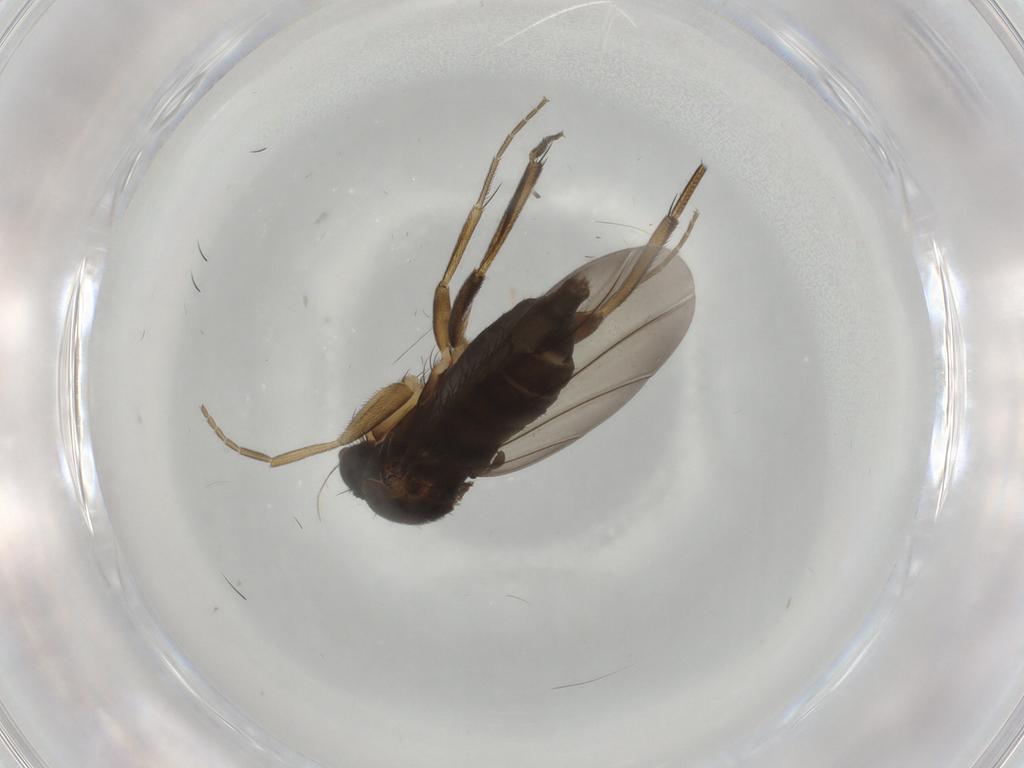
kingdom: Animalia
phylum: Arthropoda
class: Insecta
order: Diptera
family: Phoridae
